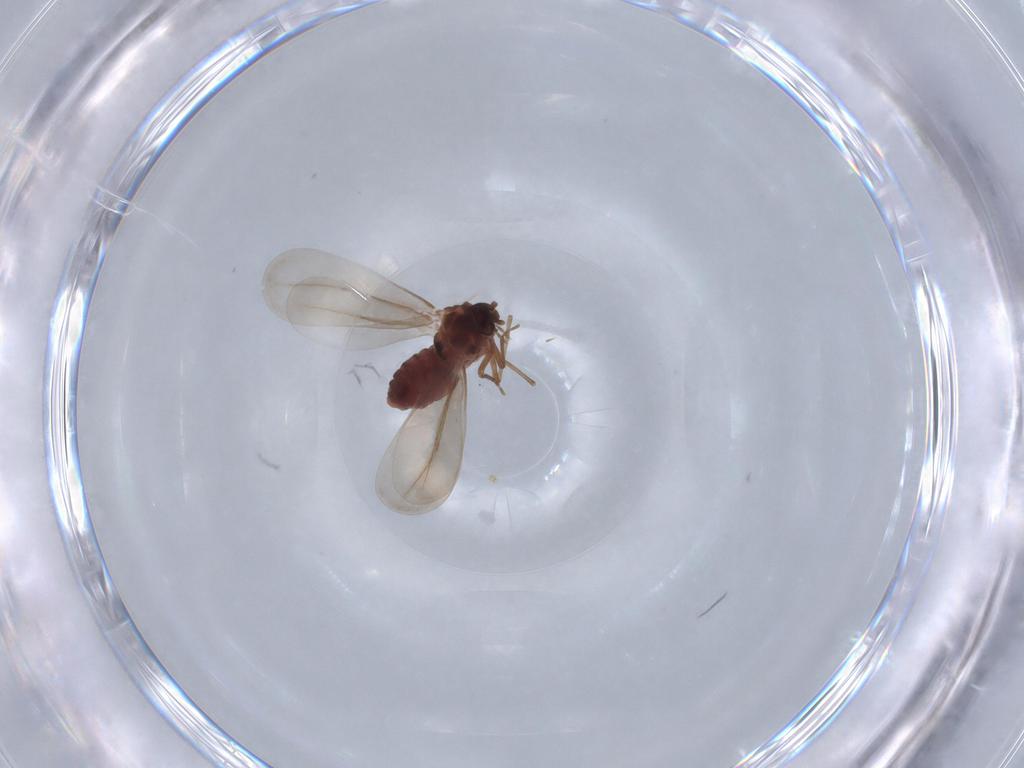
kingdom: Animalia
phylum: Arthropoda
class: Insecta
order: Hemiptera
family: Aleyrodidae
